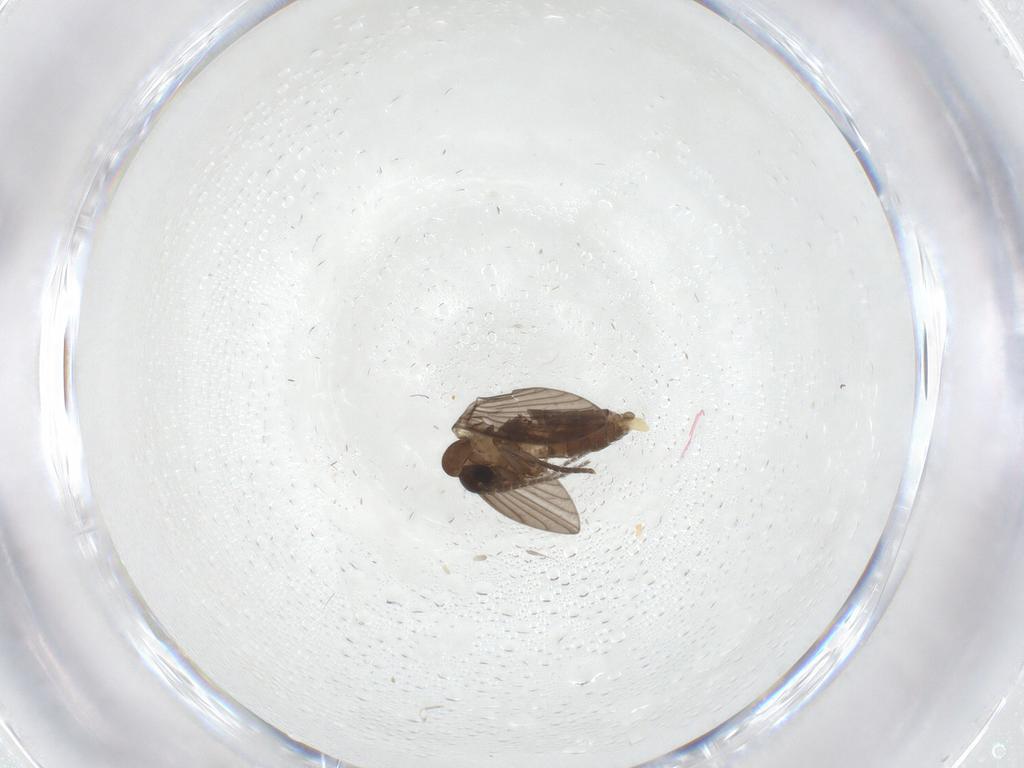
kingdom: Animalia
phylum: Arthropoda
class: Insecta
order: Diptera
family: Psychodidae
